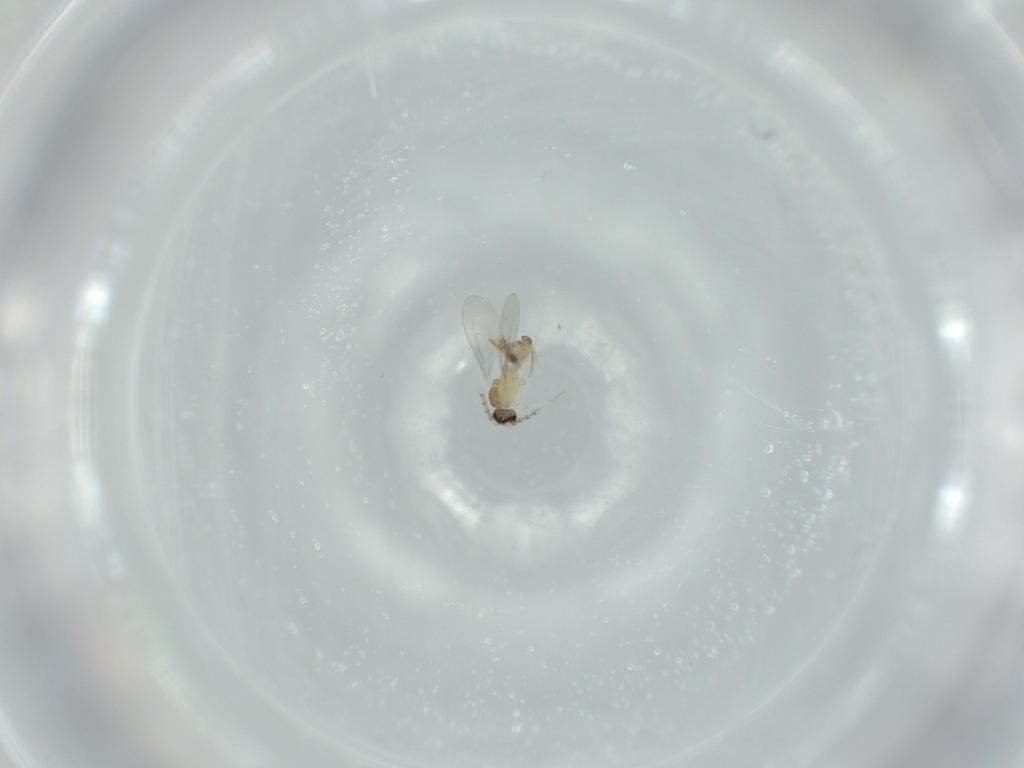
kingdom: Animalia
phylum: Arthropoda
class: Insecta
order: Diptera
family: Cecidomyiidae
